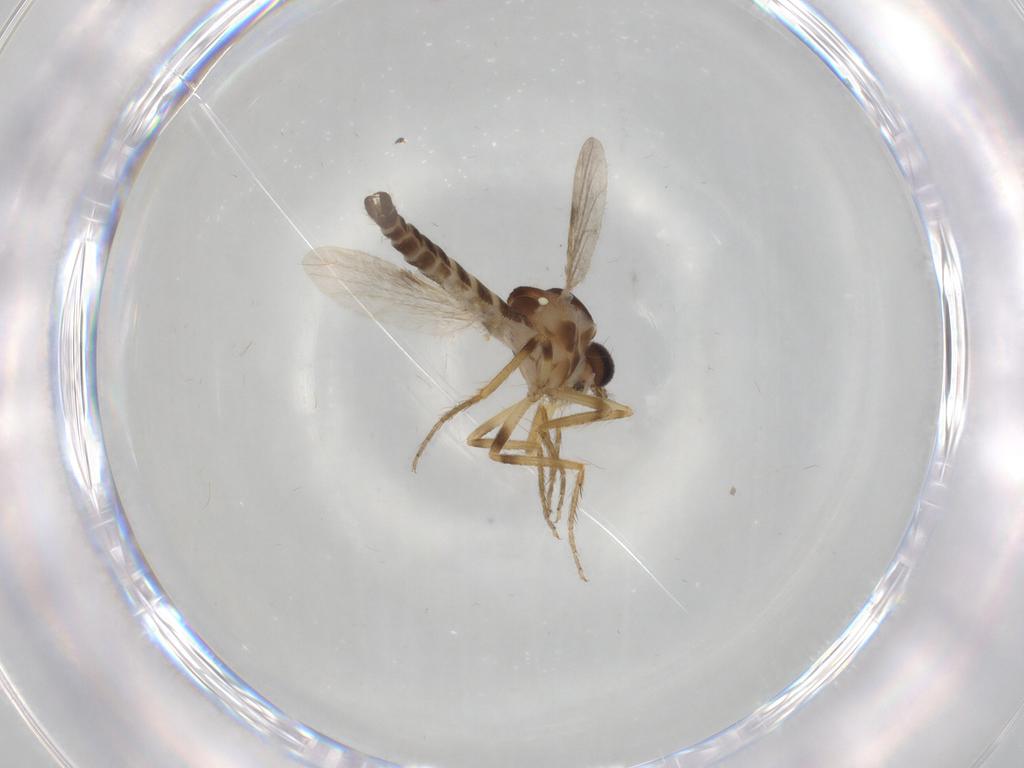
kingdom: Animalia
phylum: Arthropoda
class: Insecta
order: Diptera
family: Ceratopogonidae
